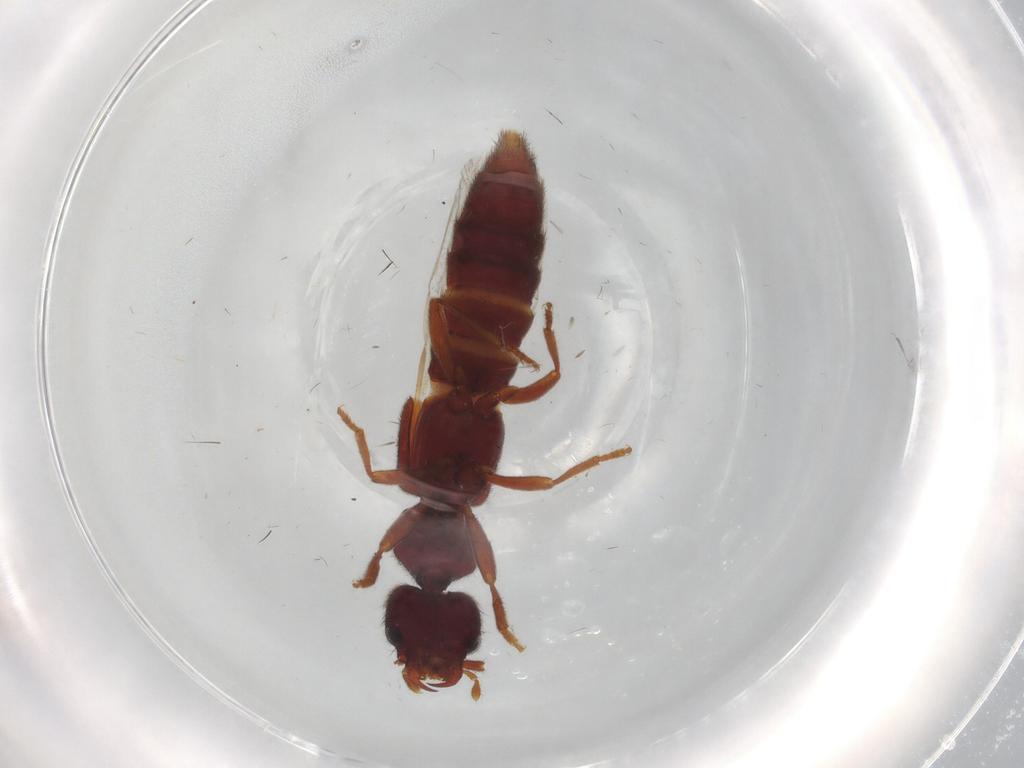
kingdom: Animalia
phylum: Arthropoda
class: Insecta
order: Coleoptera
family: Staphylinidae
